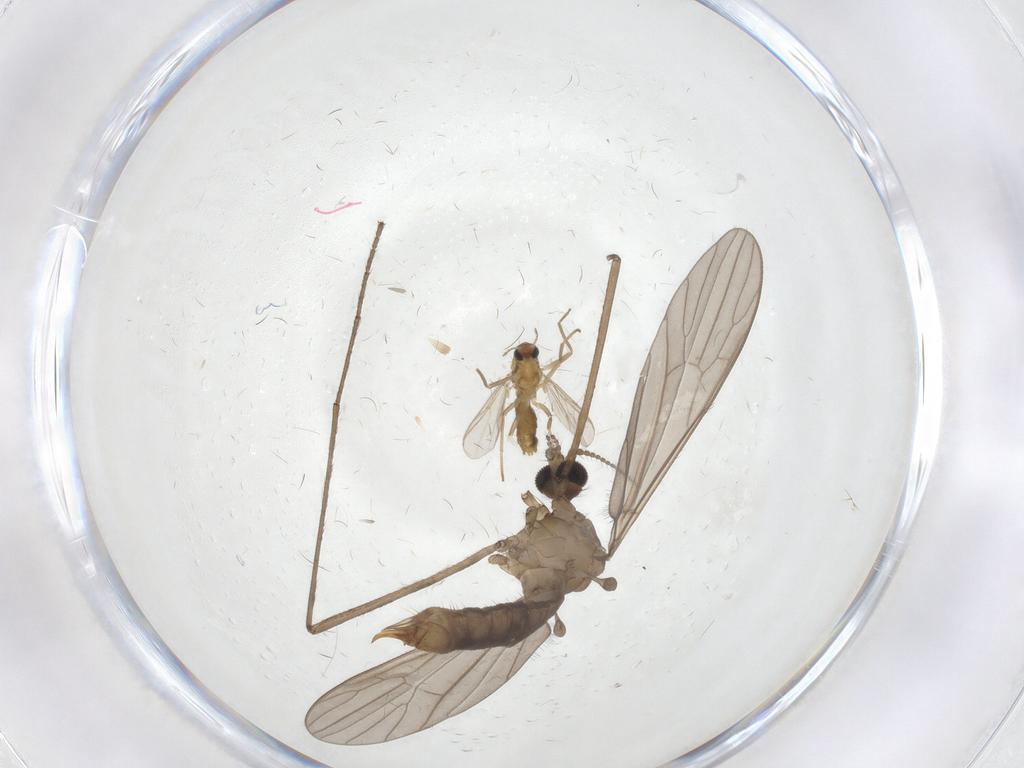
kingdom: Animalia
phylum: Arthropoda
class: Insecta
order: Diptera
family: Limoniidae
